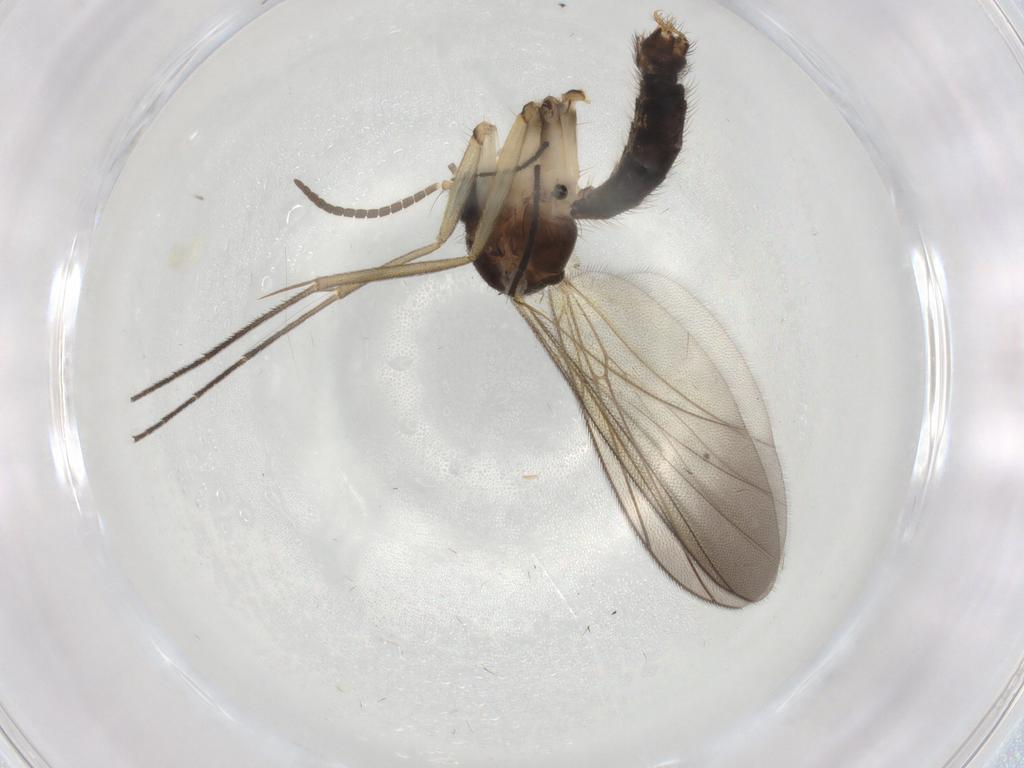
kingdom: Animalia
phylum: Arthropoda
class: Insecta
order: Diptera
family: Sciaridae
